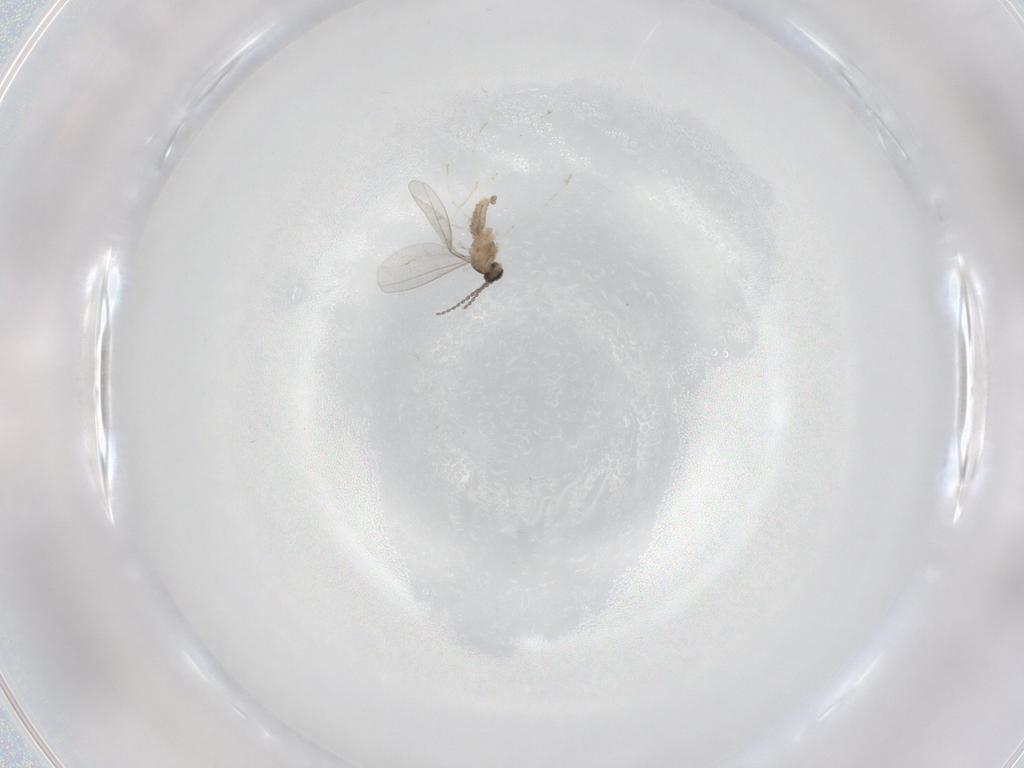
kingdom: Animalia
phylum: Arthropoda
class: Insecta
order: Diptera
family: Cecidomyiidae
